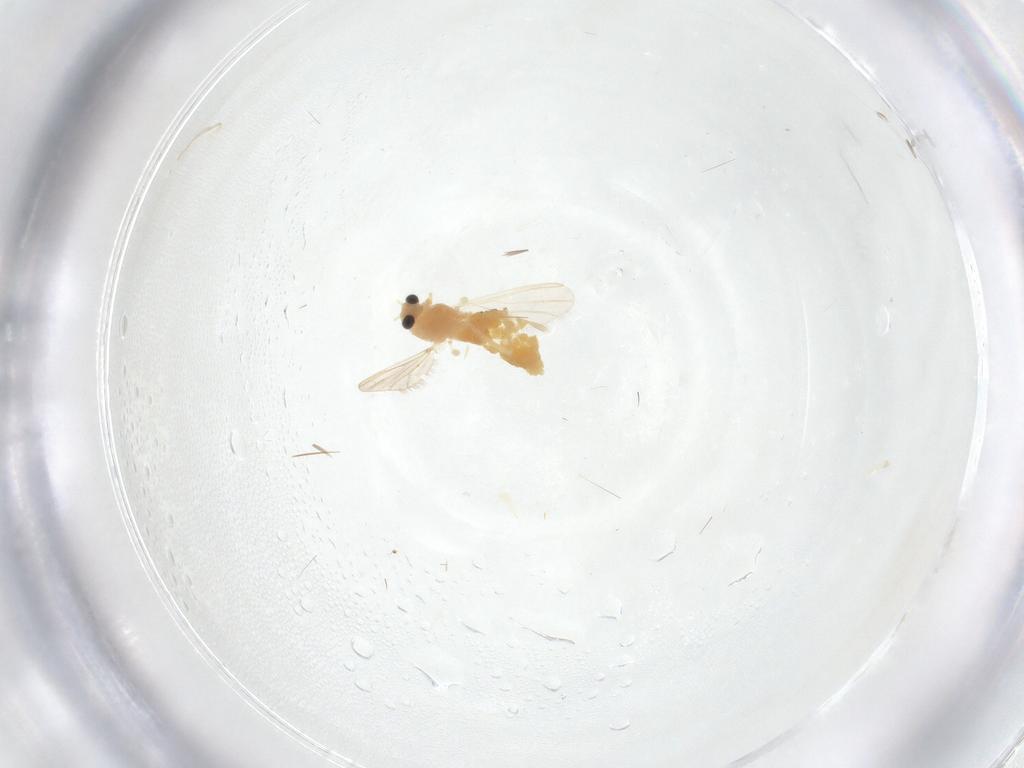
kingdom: Animalia
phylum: Arthropoda
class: Insecta
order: Diptera
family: Chironomidae
